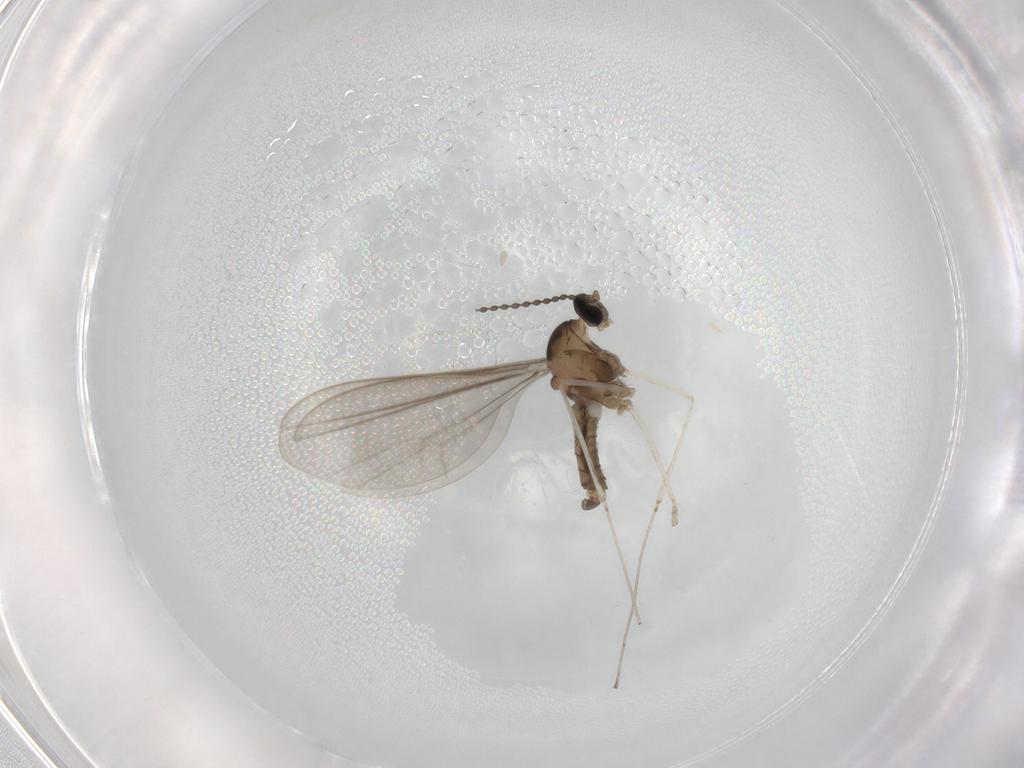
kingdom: Animalia
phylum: Arthropoda
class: Insecta
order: Diptera
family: Cecidomyiidae
